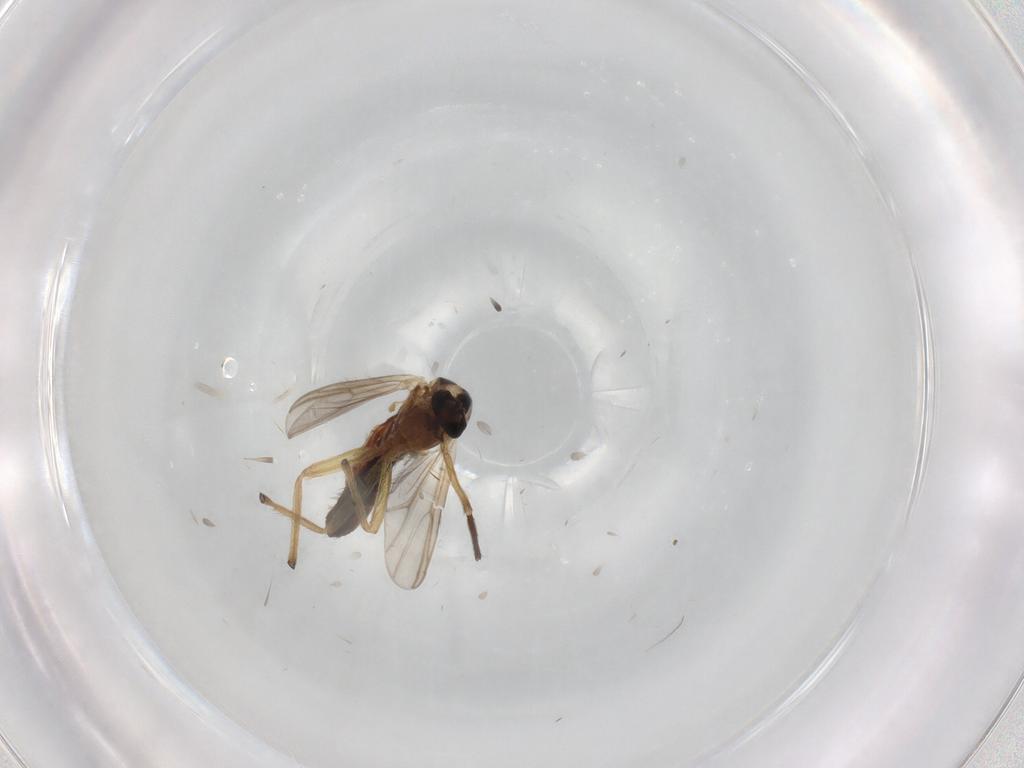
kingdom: Animalia
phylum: Arthropoda
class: Insecta
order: Diptera
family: Chironomidae
